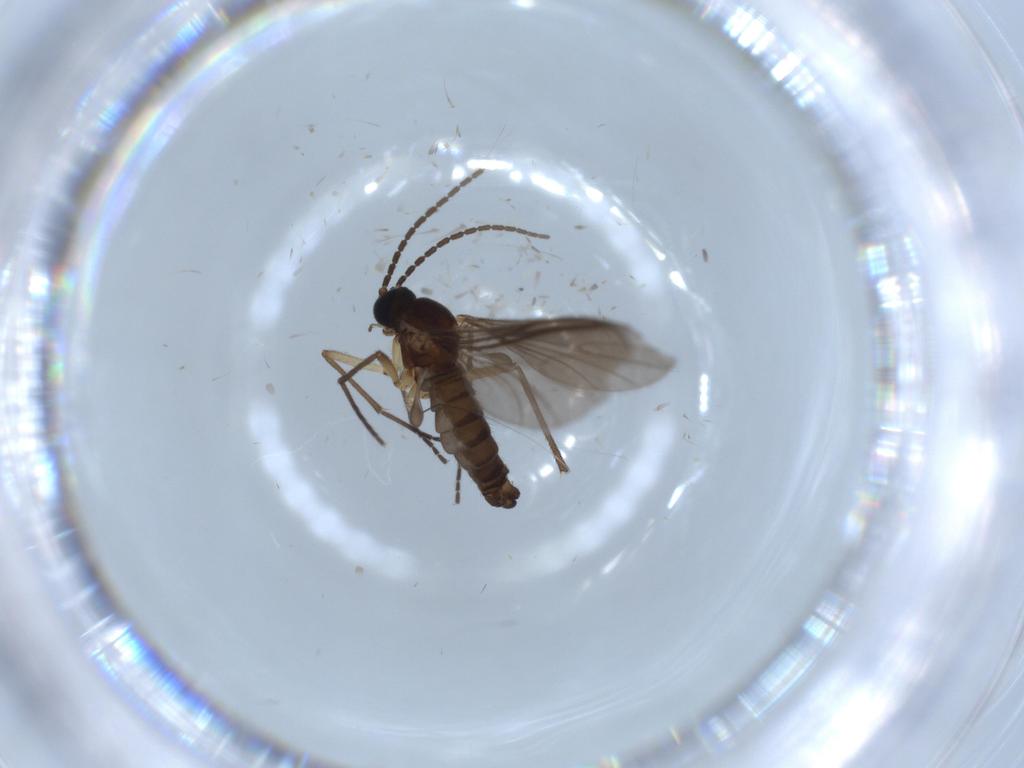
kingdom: Animalia
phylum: Arthropoda
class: Insecta
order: Diptera
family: Sciaridae
